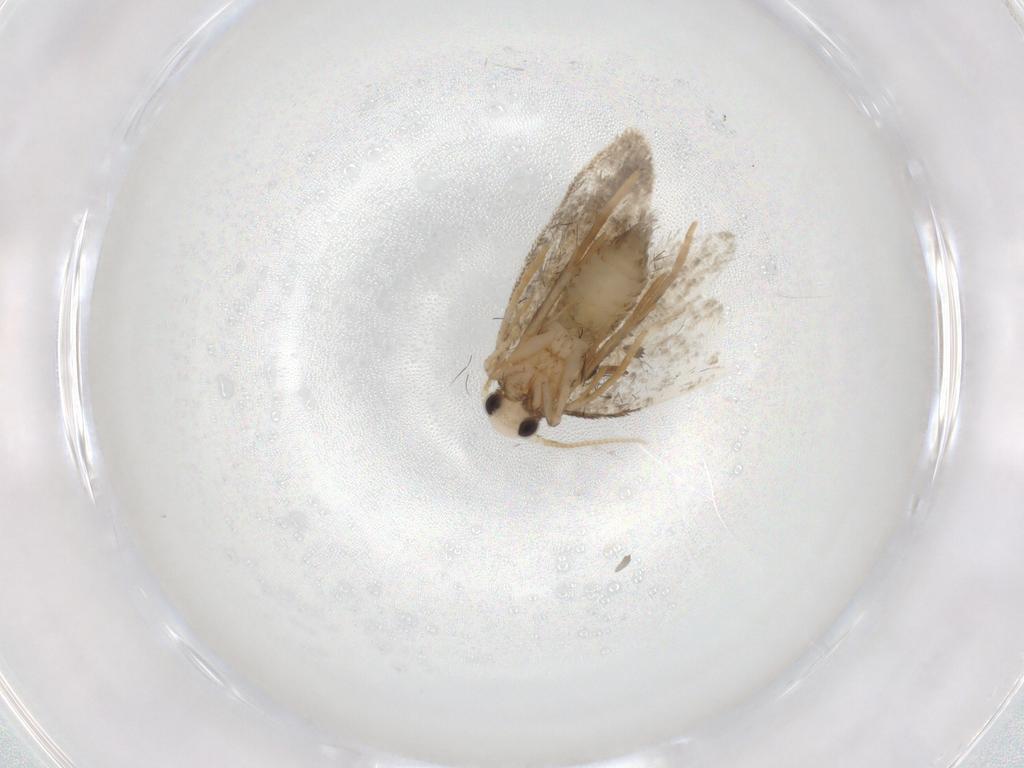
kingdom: Animalia
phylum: Arthropoda
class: Insecta
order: Lepidoptera
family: Psychidae
